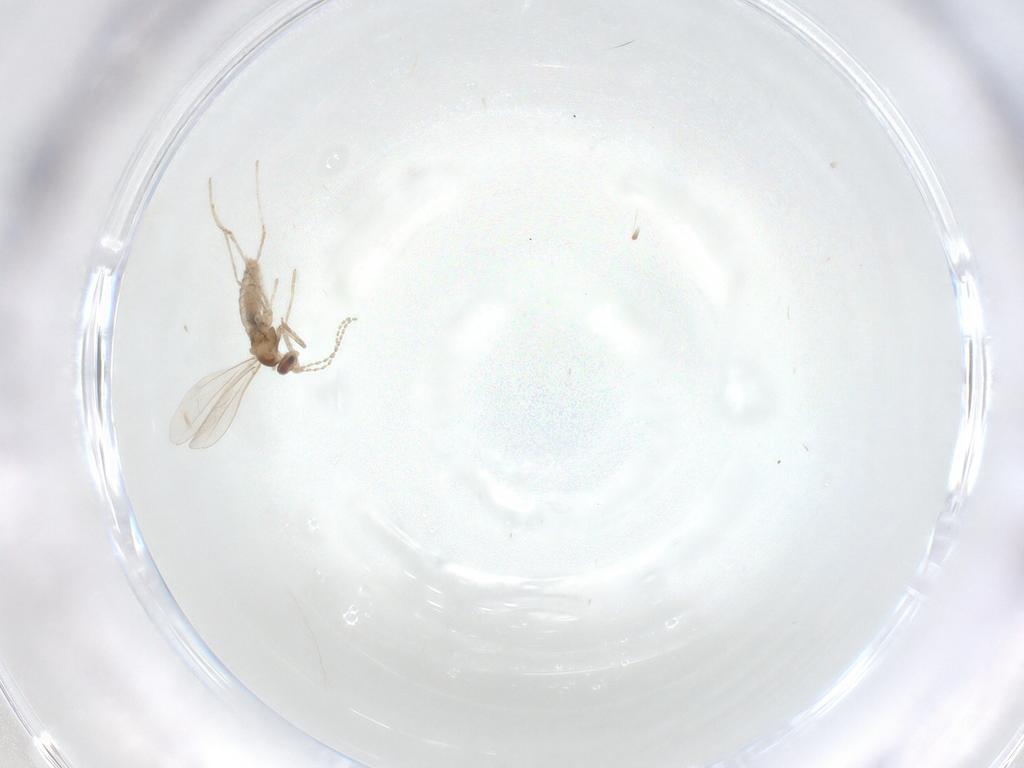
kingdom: Animalia
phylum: Arthropoda
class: Insecta
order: Diptera
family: Cecidomyiidae
